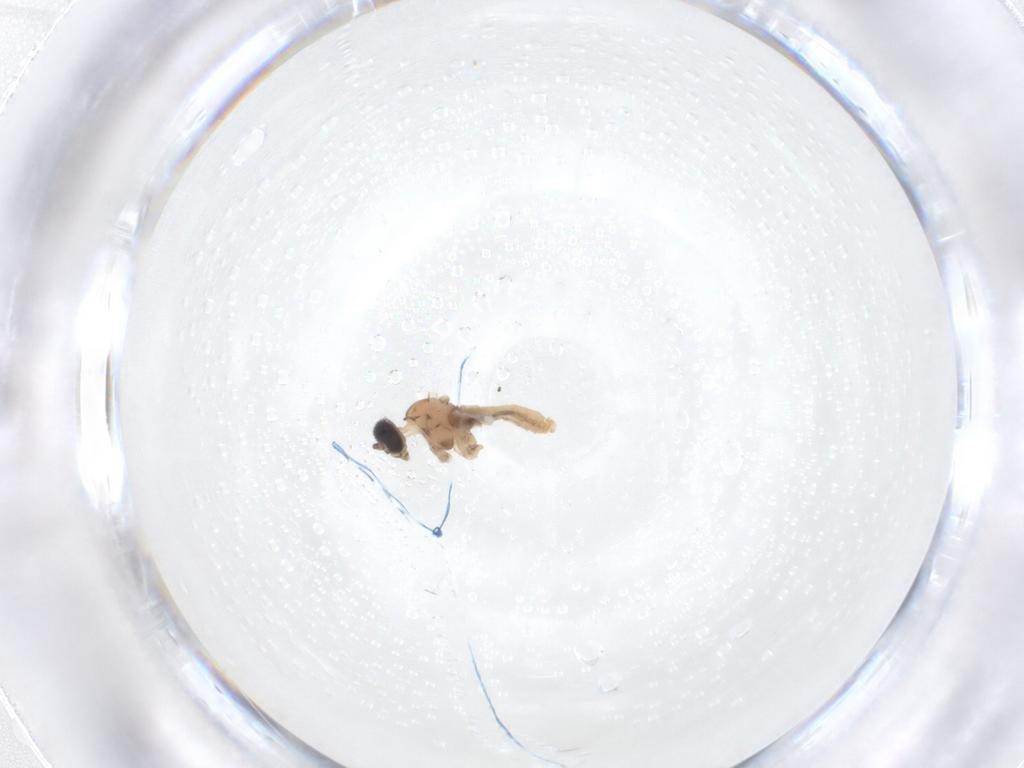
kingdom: Animalia
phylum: Arthropoda
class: Insecta
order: Diptera
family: Cecidomyiidae
